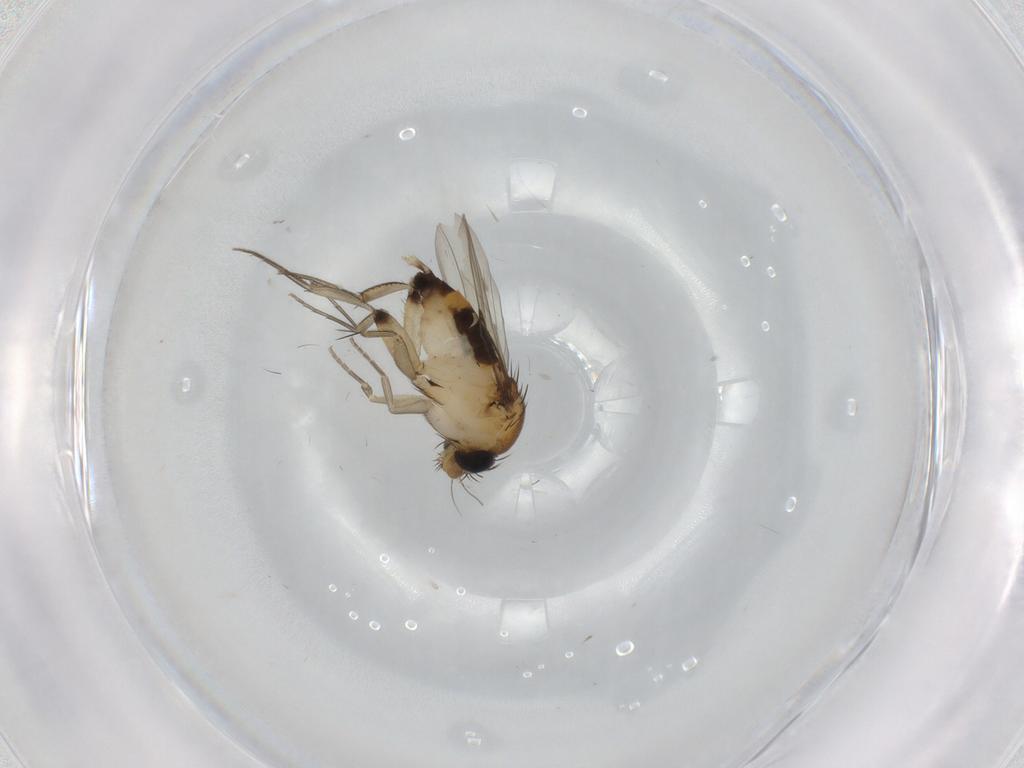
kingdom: Animalia
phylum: Arthropoda
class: Insecta
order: Diptera
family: Phoridae
